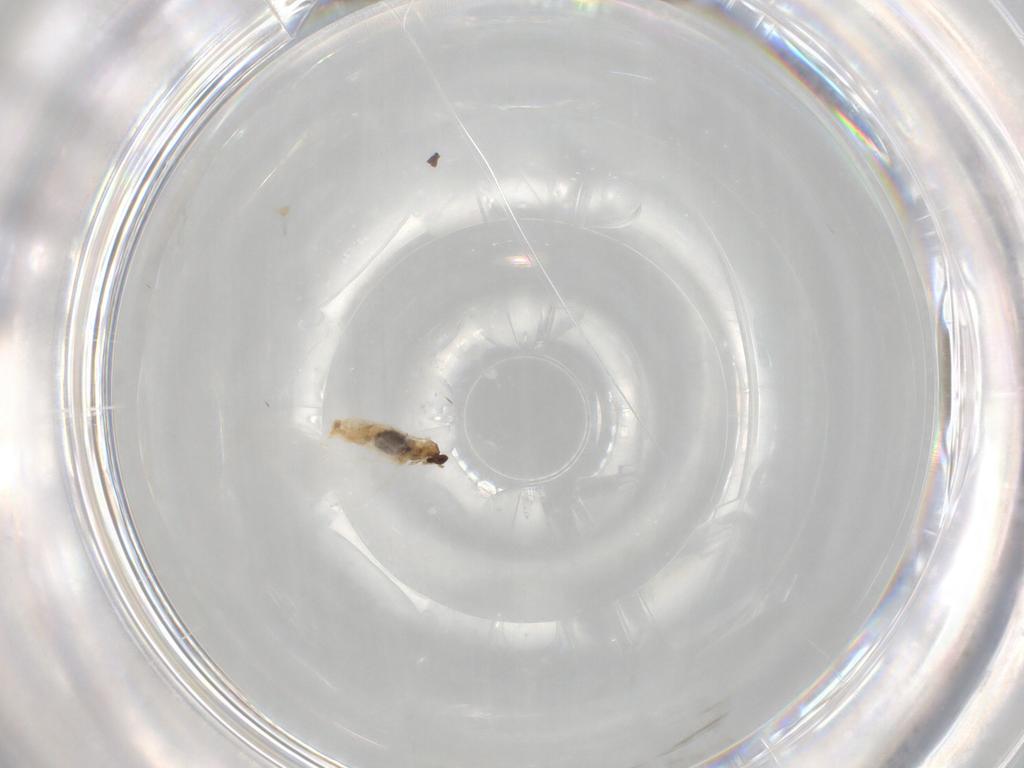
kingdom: Animalia
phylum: Arthropoda
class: Insecta
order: Diptera
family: Cecidomyiidae
